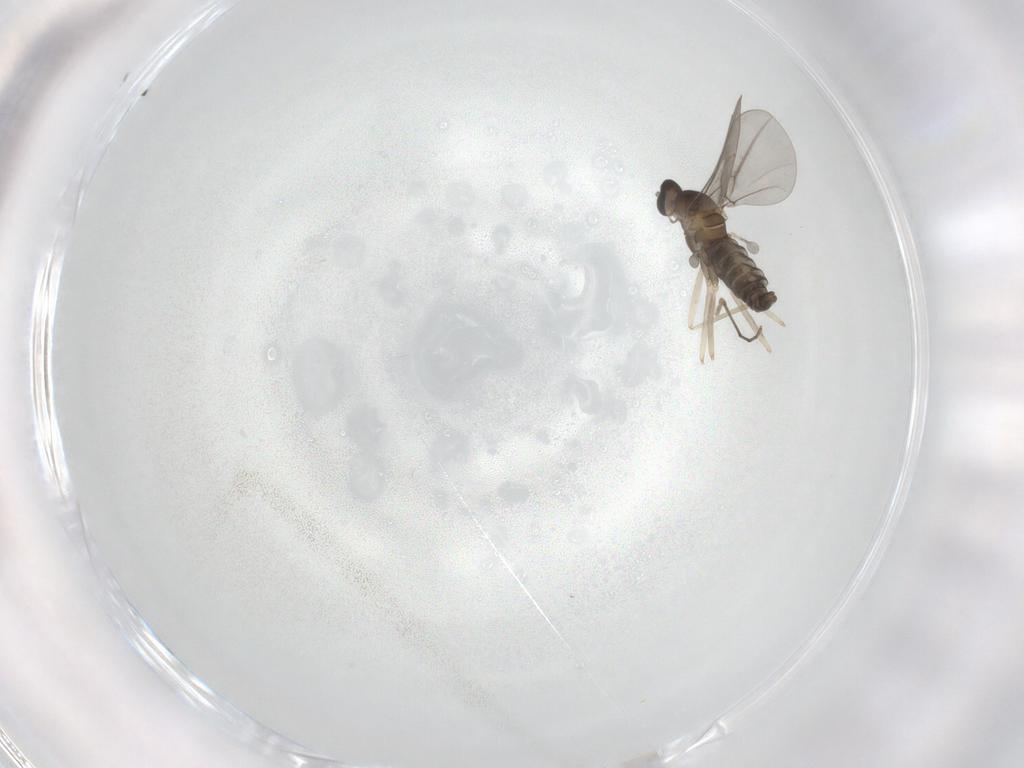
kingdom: Animalia
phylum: Arthropoda
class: Insecta
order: Diptera
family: Cecidomyiidae
